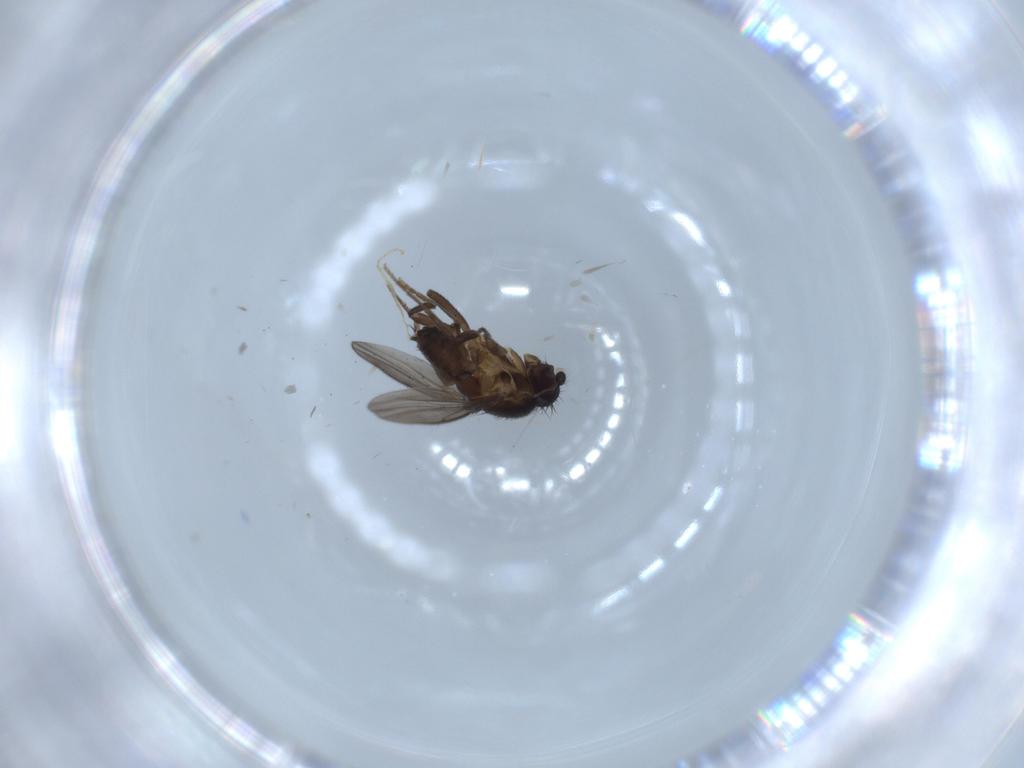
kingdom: Animalia
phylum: Arthropoda
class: Insecta
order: Diptera
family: Sphaeroceridae
